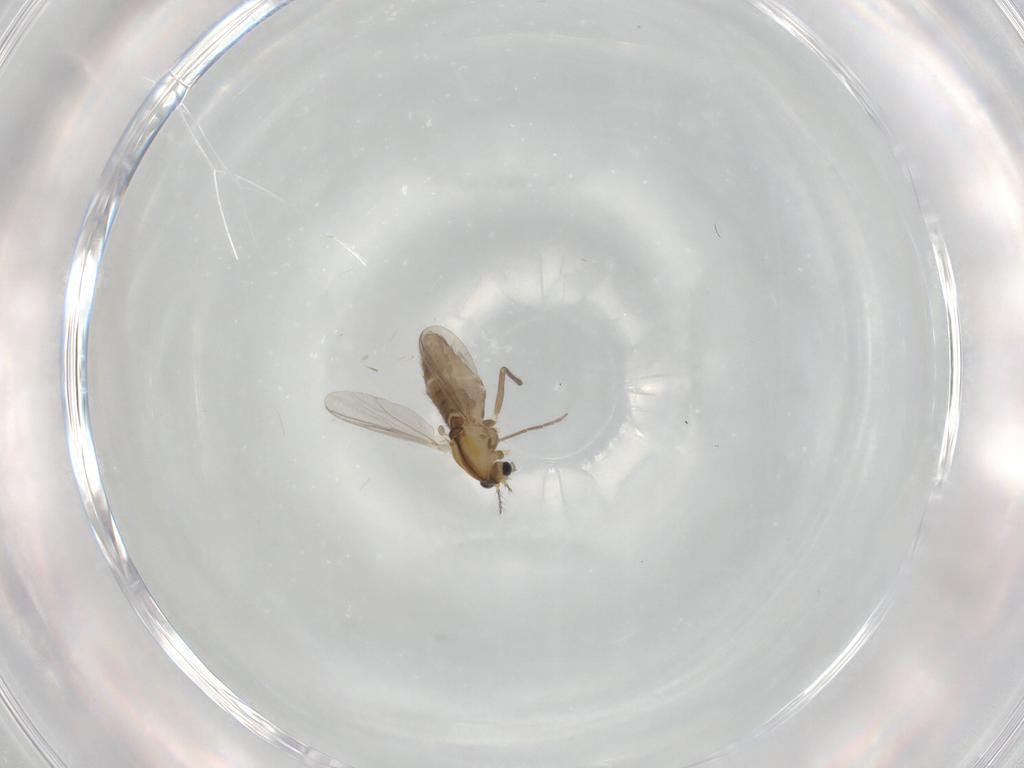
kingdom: Animalia
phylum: Arthropoda
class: Insecta
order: Diptera
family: Chironomidae
